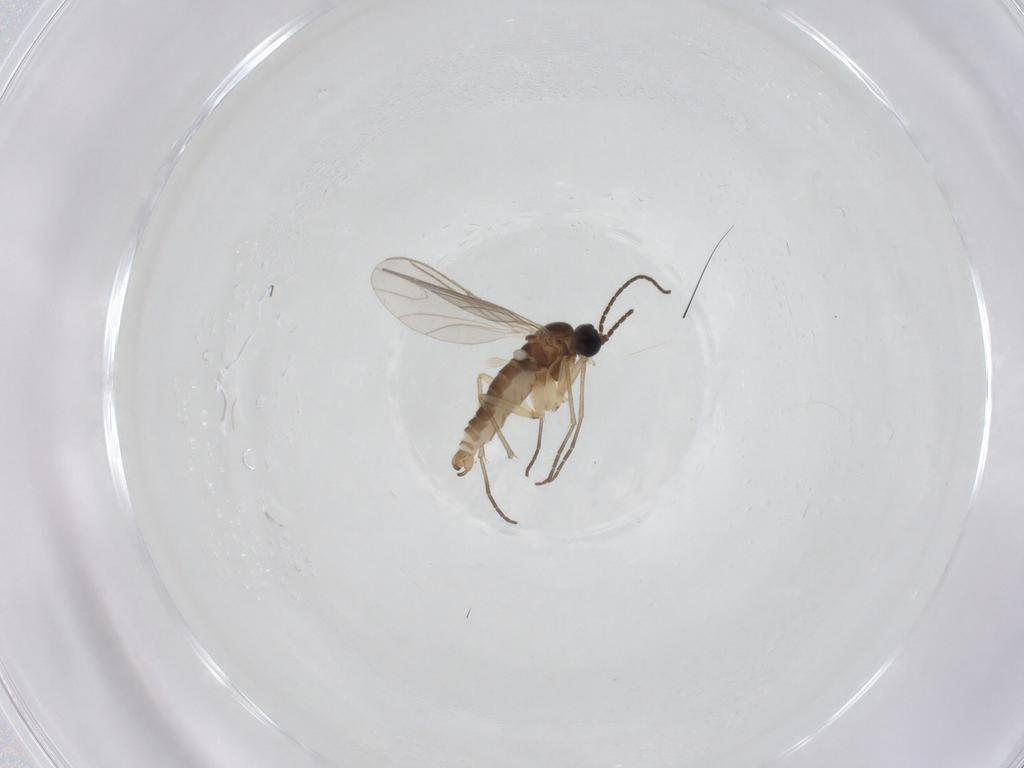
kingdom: Animalia
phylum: Arthropoda
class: Insecta
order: Diptera
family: Sciaridae
